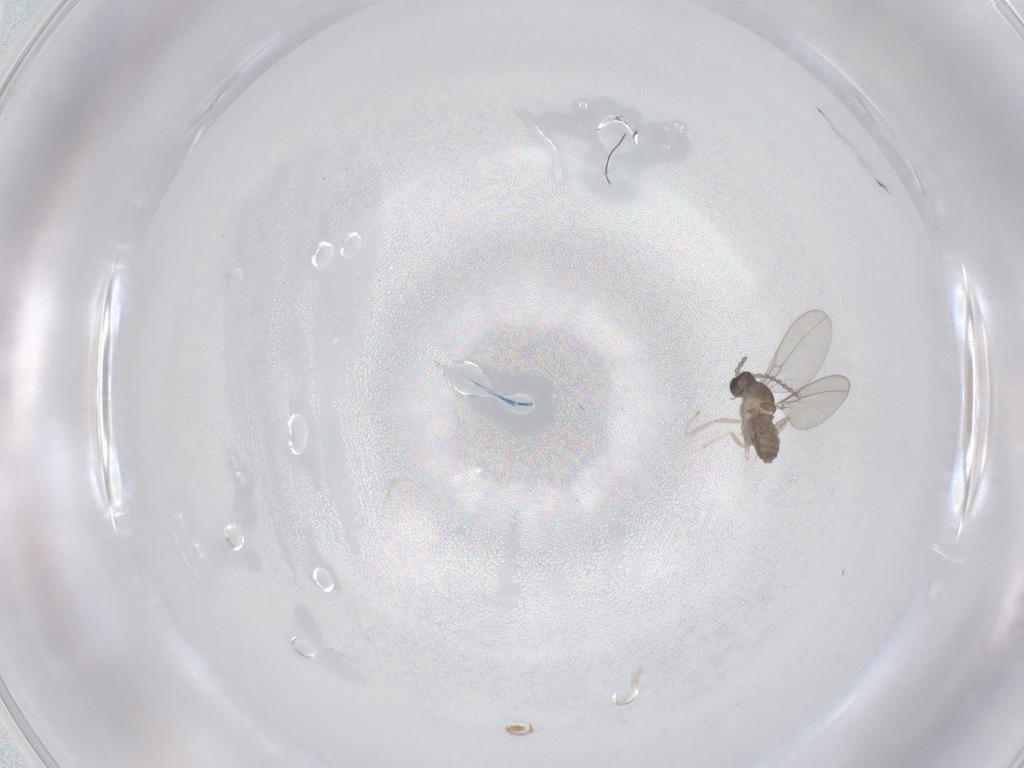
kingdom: Animalia
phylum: Arthropoda
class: Insecta
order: Diptera
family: Cecidomyiidae
